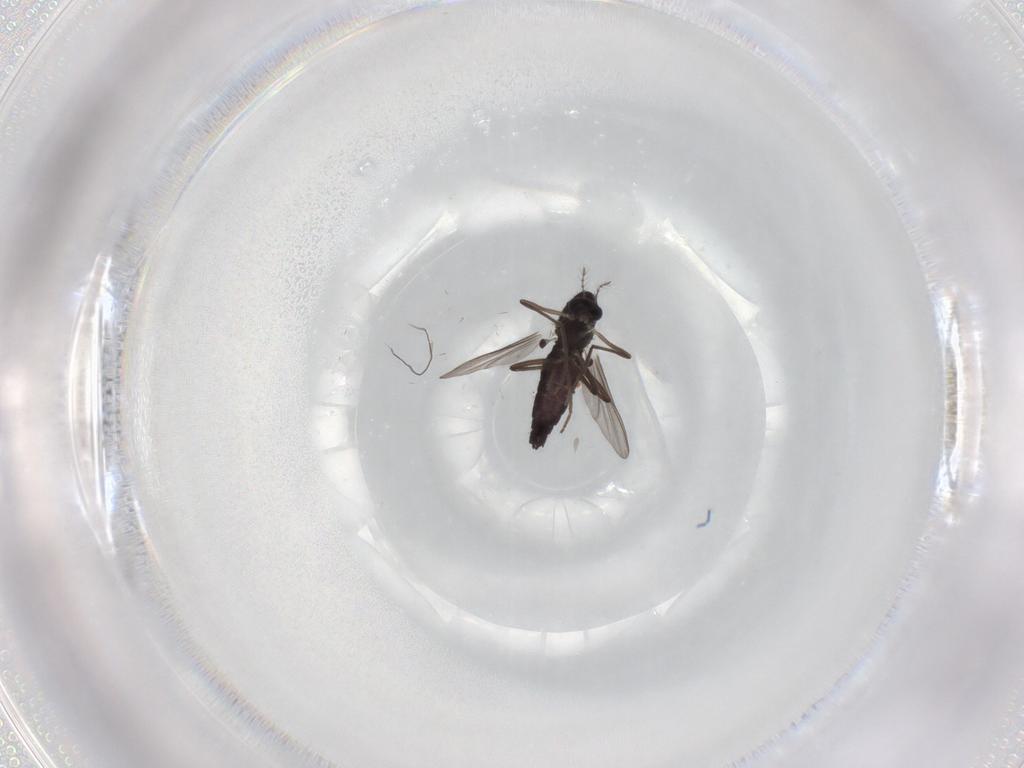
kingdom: Animalia
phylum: Arthropoda
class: Insecta
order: Diptera
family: Chironomidae
